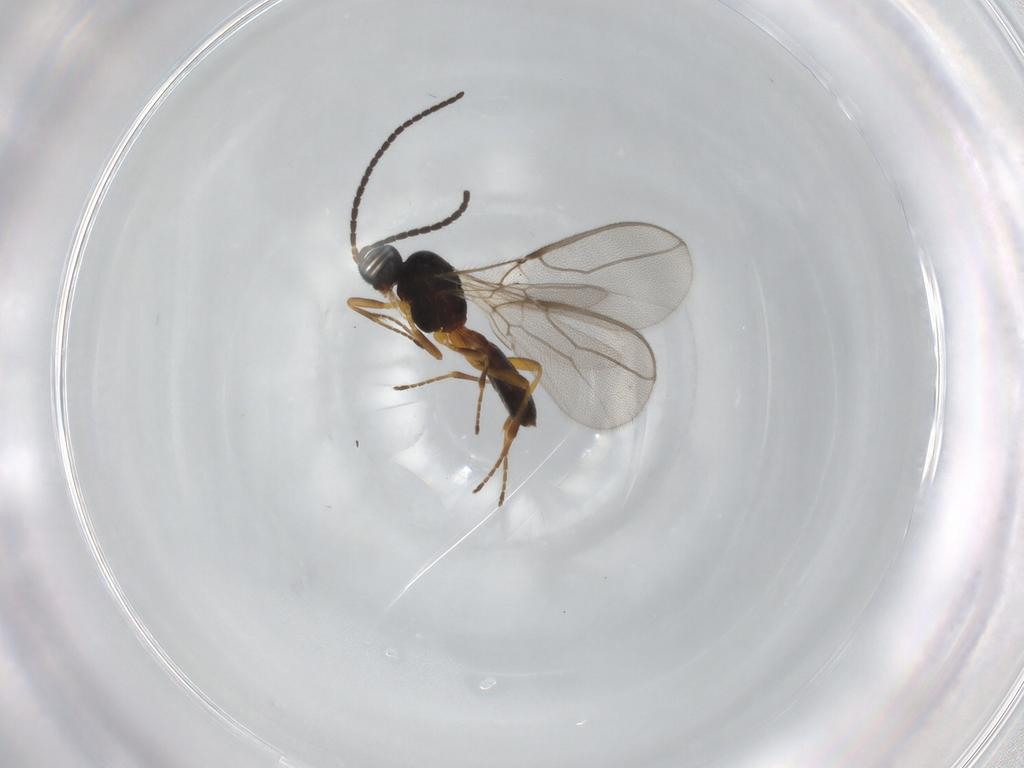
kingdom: Animalia
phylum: Arthropoda
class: Insecta
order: Hymenoptera
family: Braconidae
